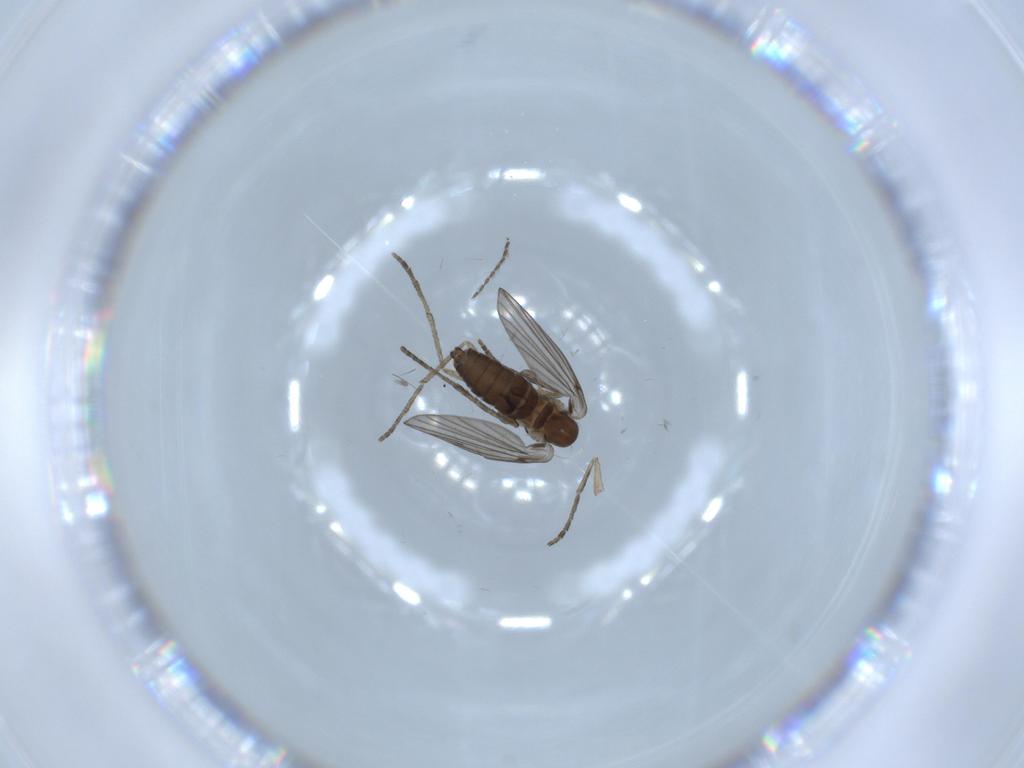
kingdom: Animalia
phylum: Arthropoda
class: Insecta
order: Diptera
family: Psychodidae
